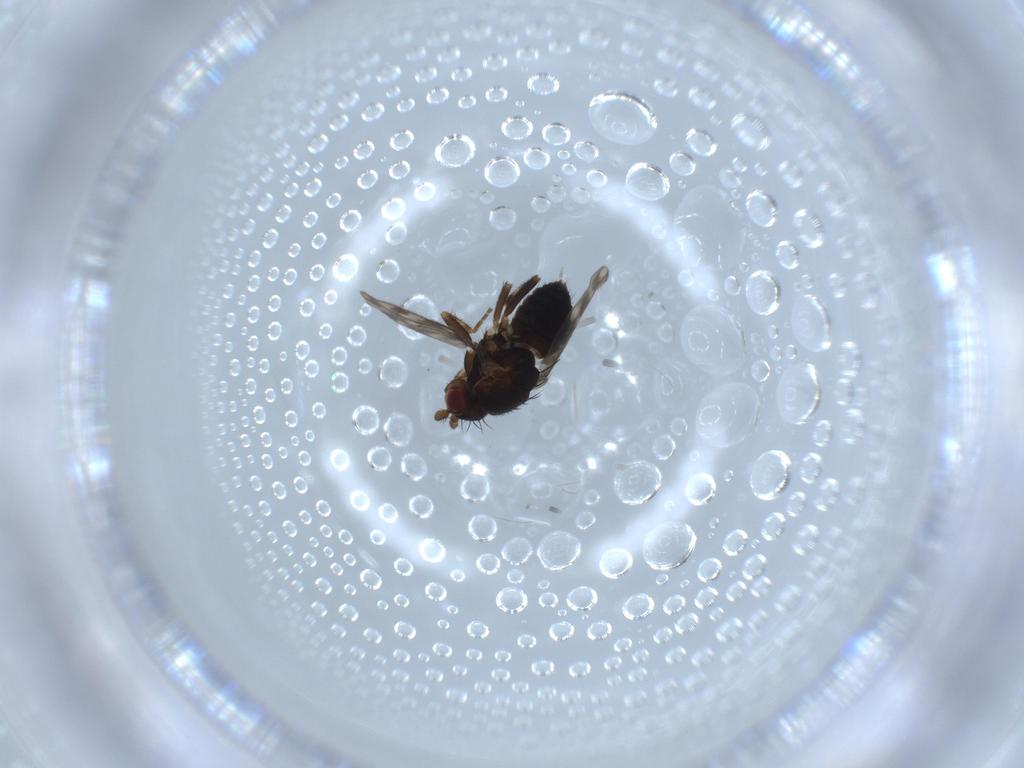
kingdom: Animalia
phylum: Arthropoda
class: Insecta
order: Diptera
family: Sphaeroceridae
